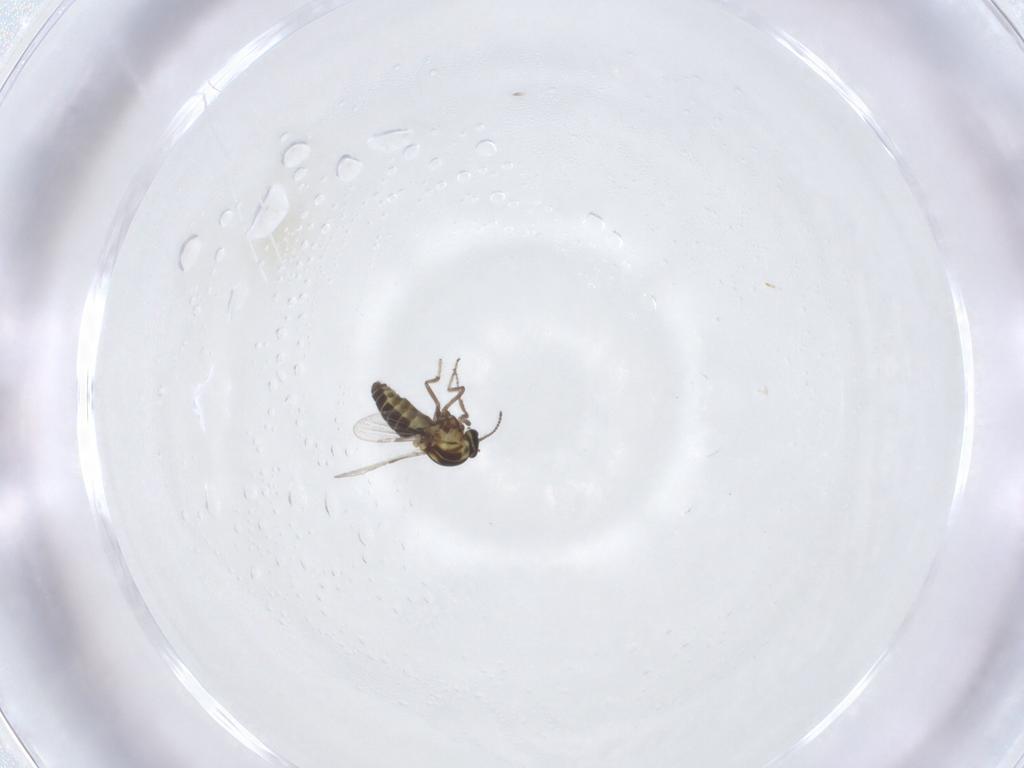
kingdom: Animalia
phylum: Arthropoda
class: Insecta
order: Diptera
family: Ceratopogonidae
